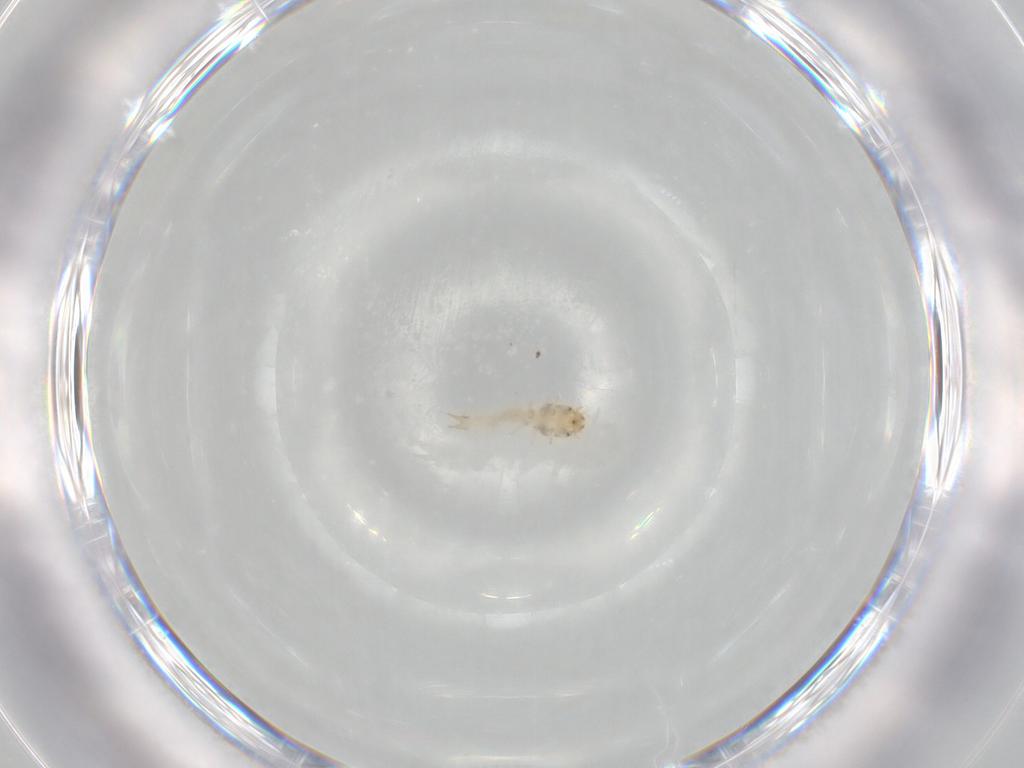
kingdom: Animalia
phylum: Arthropoda
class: Insecta
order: Coleoptera
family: Nitidulidae
